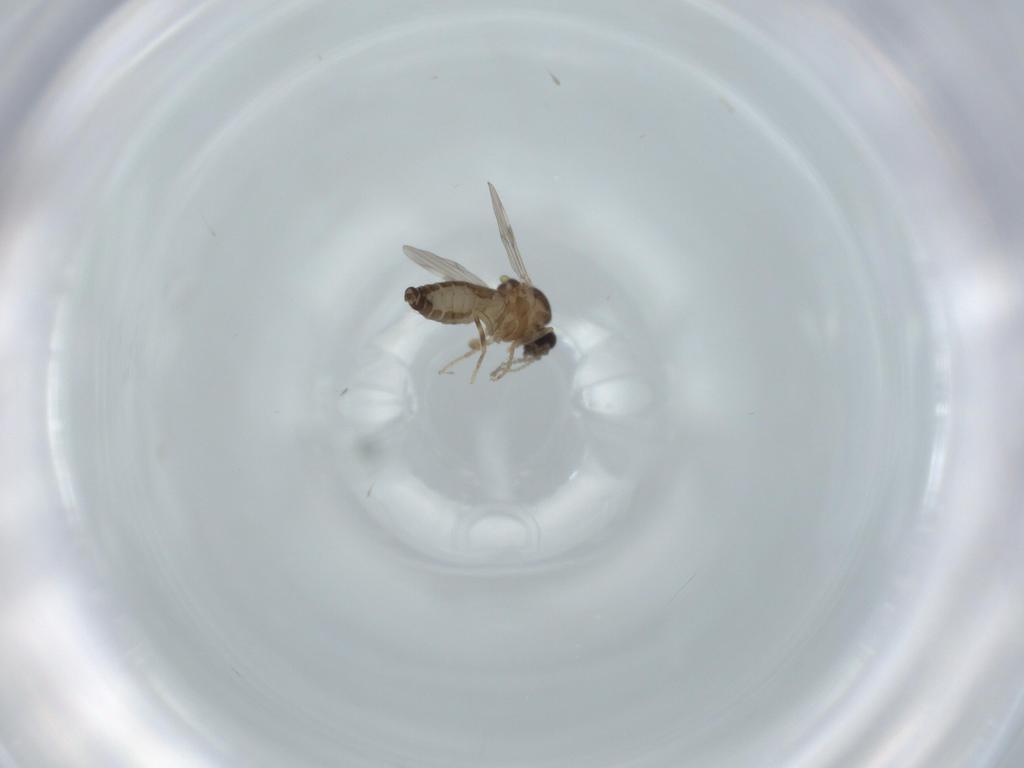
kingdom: Animalia
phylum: Arthropoda
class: Insecta
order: Diptera
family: Ceratopogonidae
